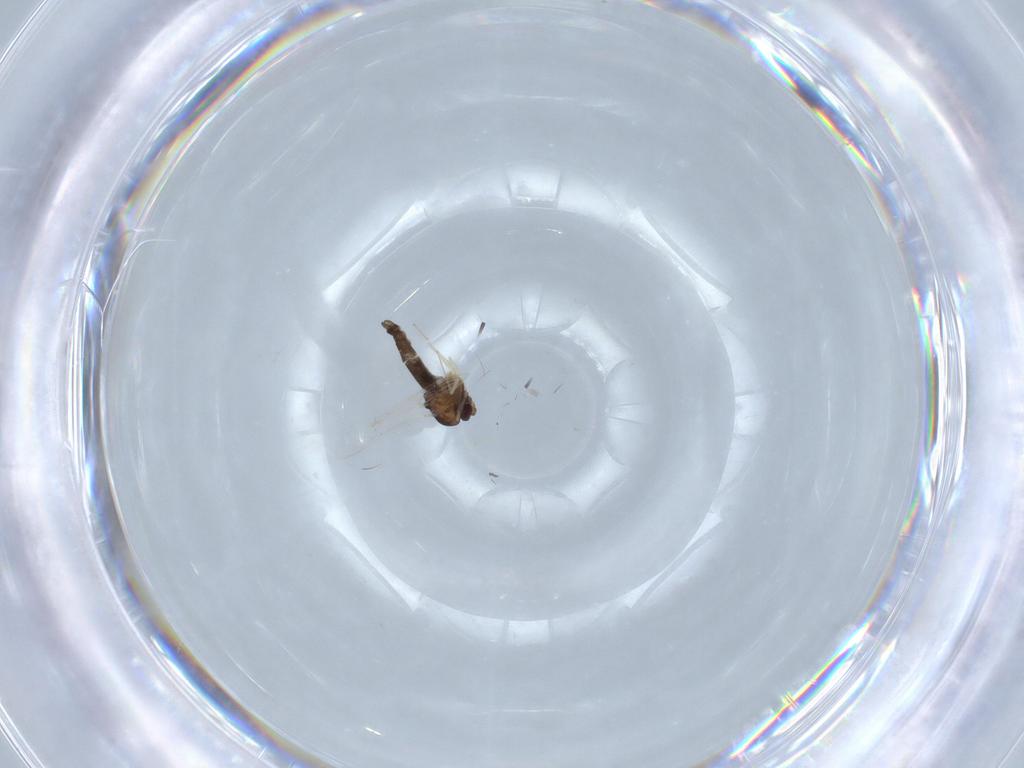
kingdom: Animalia
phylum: Arthropoda
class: Insecta
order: Diptera
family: Chironomidae
